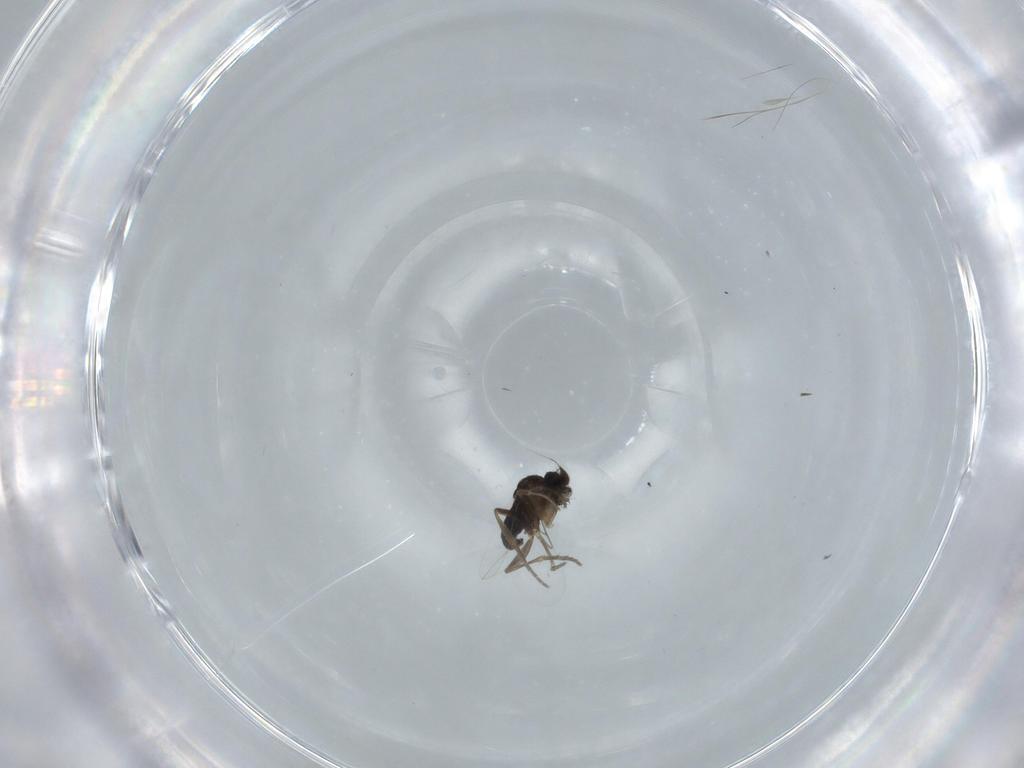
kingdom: Animalia
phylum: Arthropoda
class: Insecta
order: Diptera
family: Phoridae
